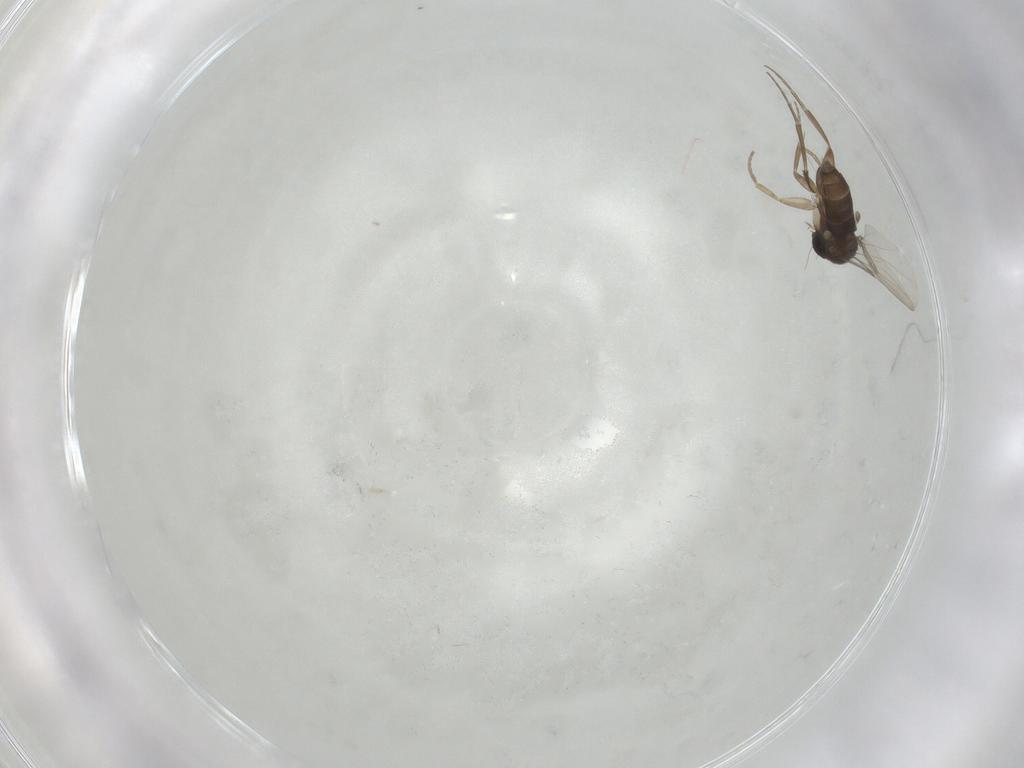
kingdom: Animalia
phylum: Arthropoda
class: Insecta
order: Diptera
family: Phoridae
